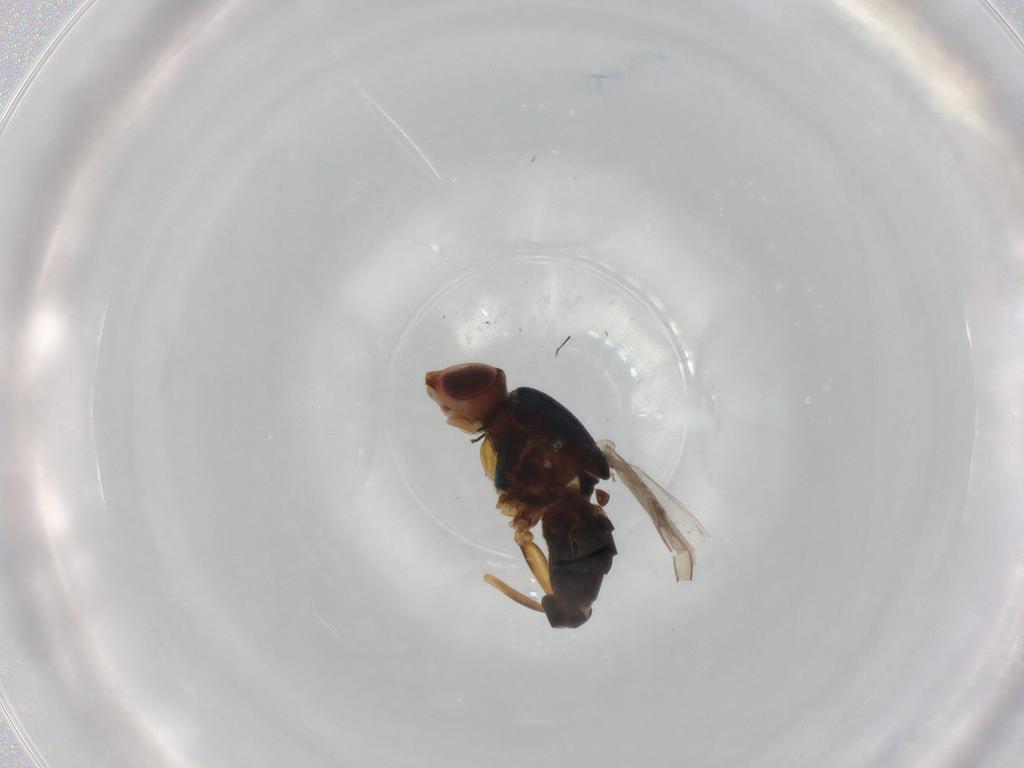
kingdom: Animalia
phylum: Arthropoda
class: Insecta
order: Diptera
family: Chloropidae
